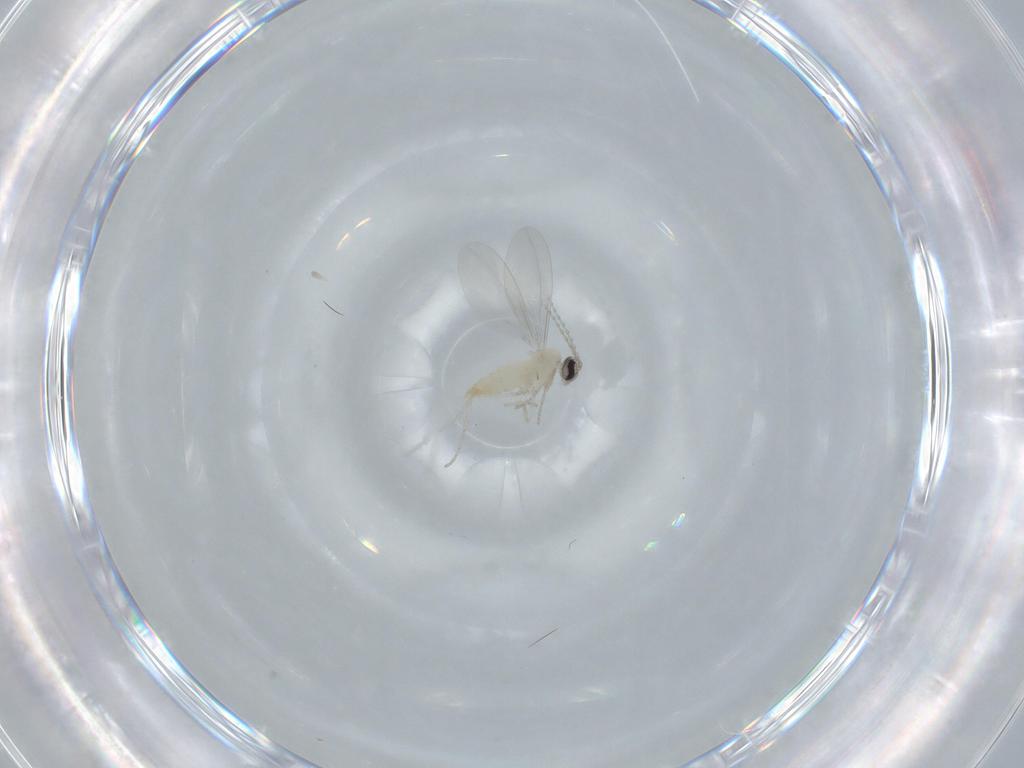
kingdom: Animalia
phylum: Arthropoda
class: Insecta
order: Diptera
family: Cecidomyiidae
